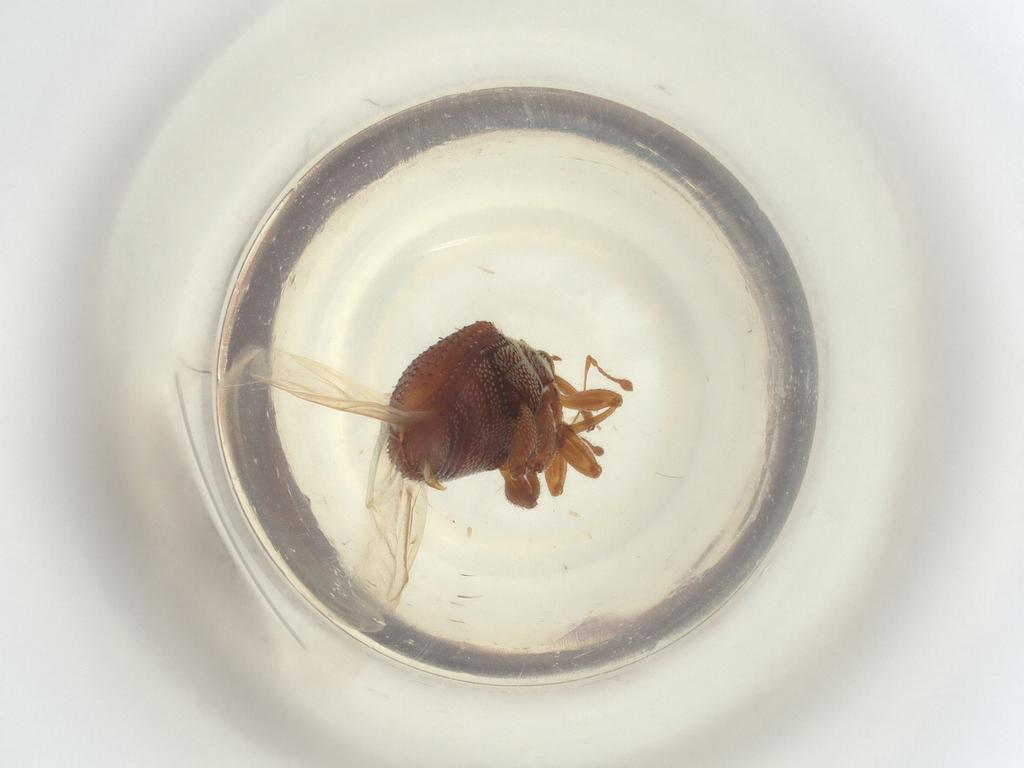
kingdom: Animalia
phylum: Arthropoda
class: Insecta
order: Coleoptera
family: Curculionidae
